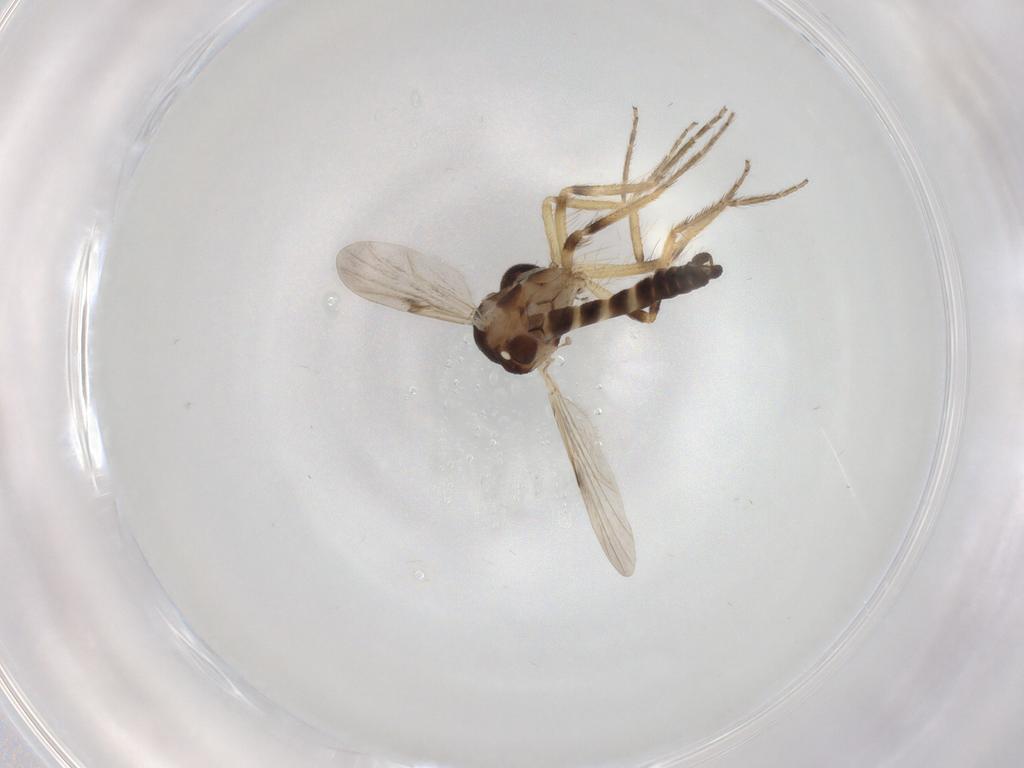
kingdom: Animalia
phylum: Arthropoda
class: Insecta
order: Diptera
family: Ceratopogonidae
